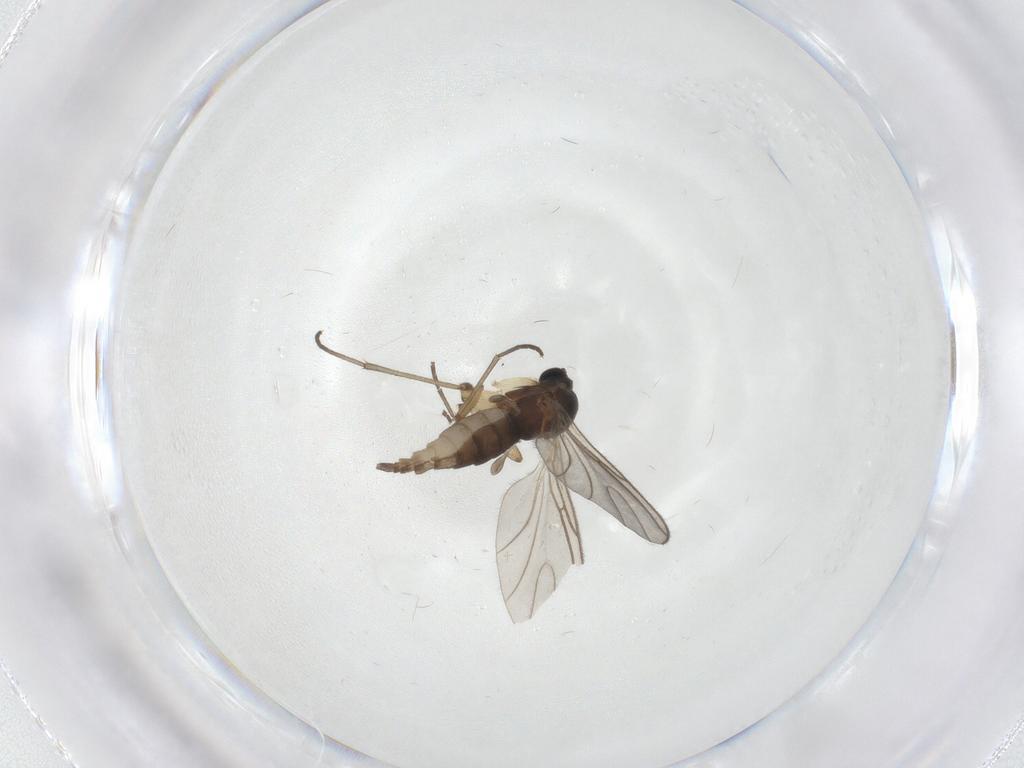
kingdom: Animalia
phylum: Arthropoda
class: Insecta
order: Diptera
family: Sciaridae
